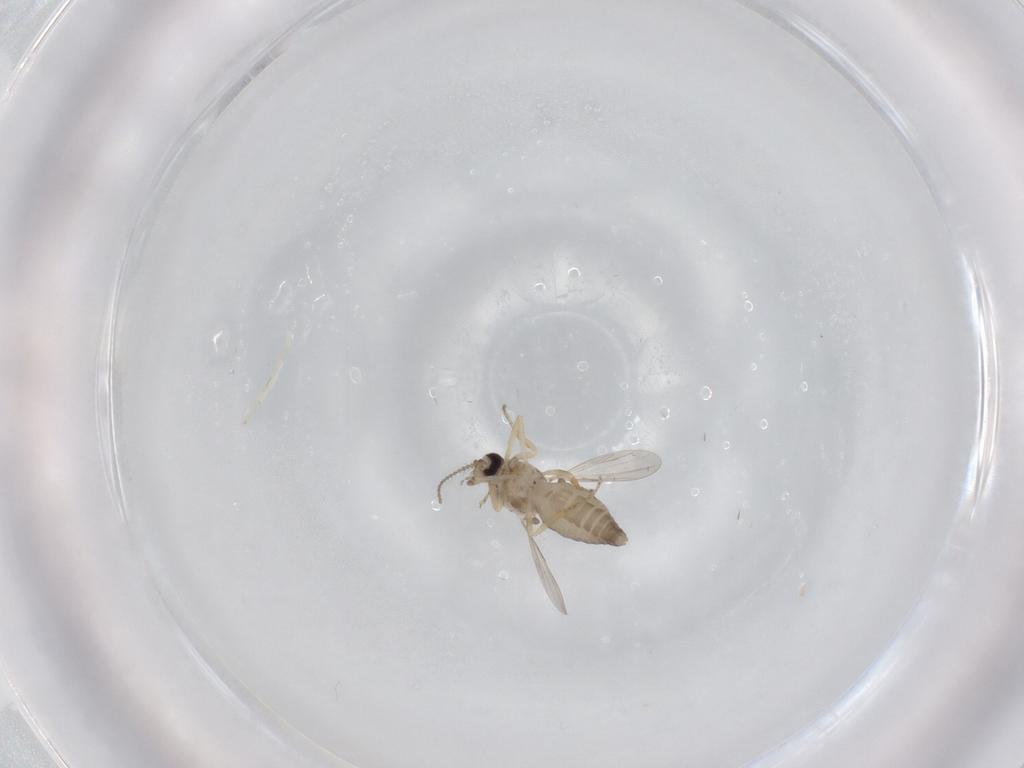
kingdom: Animalia
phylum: Arthropoda
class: Insecta
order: Diptera
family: Ceratopogonidae
